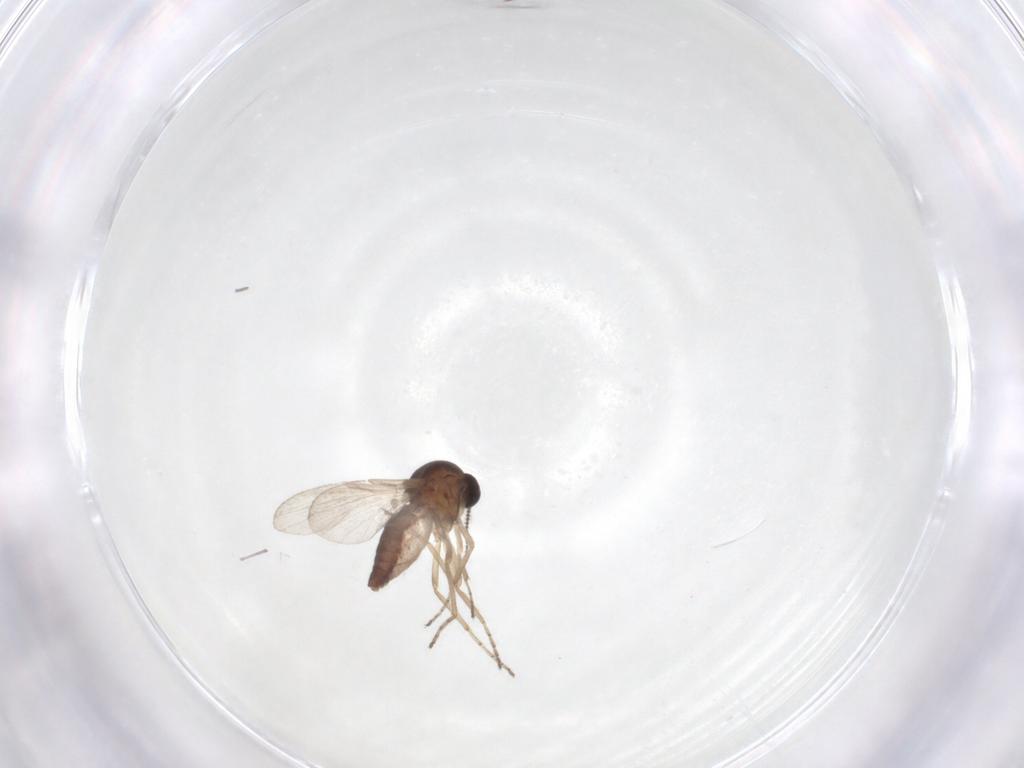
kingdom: Animalia
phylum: Arthropoda
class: Insecta
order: Diptera
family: Ceratopogonidae
